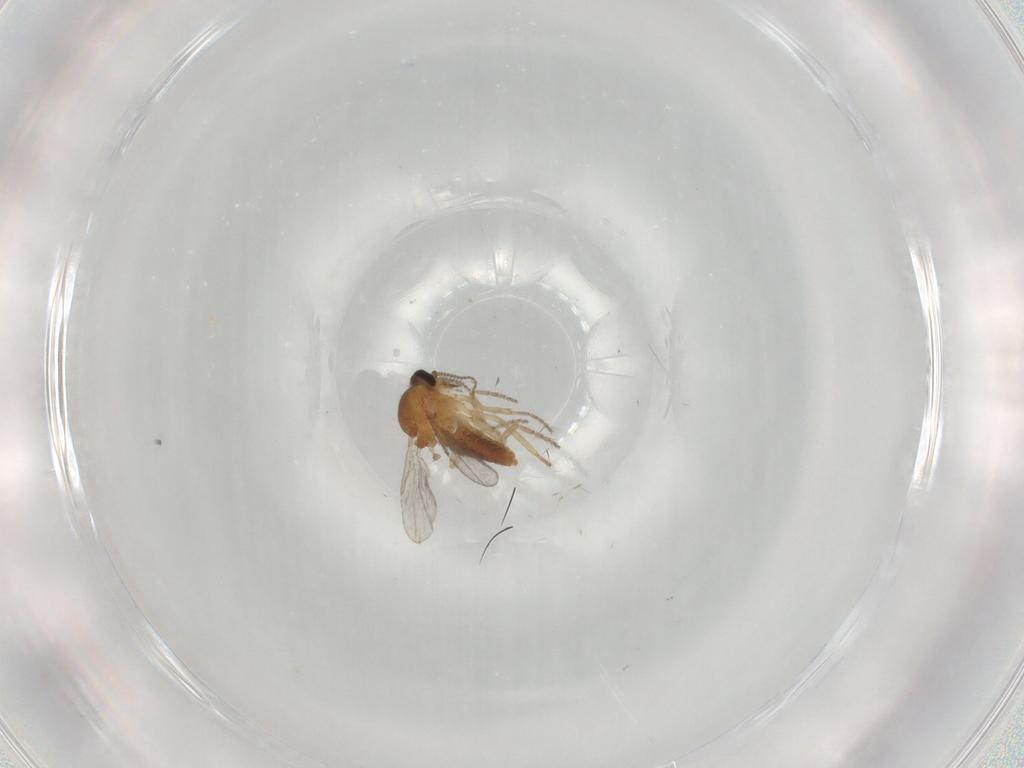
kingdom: Animalia
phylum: Arthropoda
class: Insecta
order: Diptera
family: Ceratopogonidae
